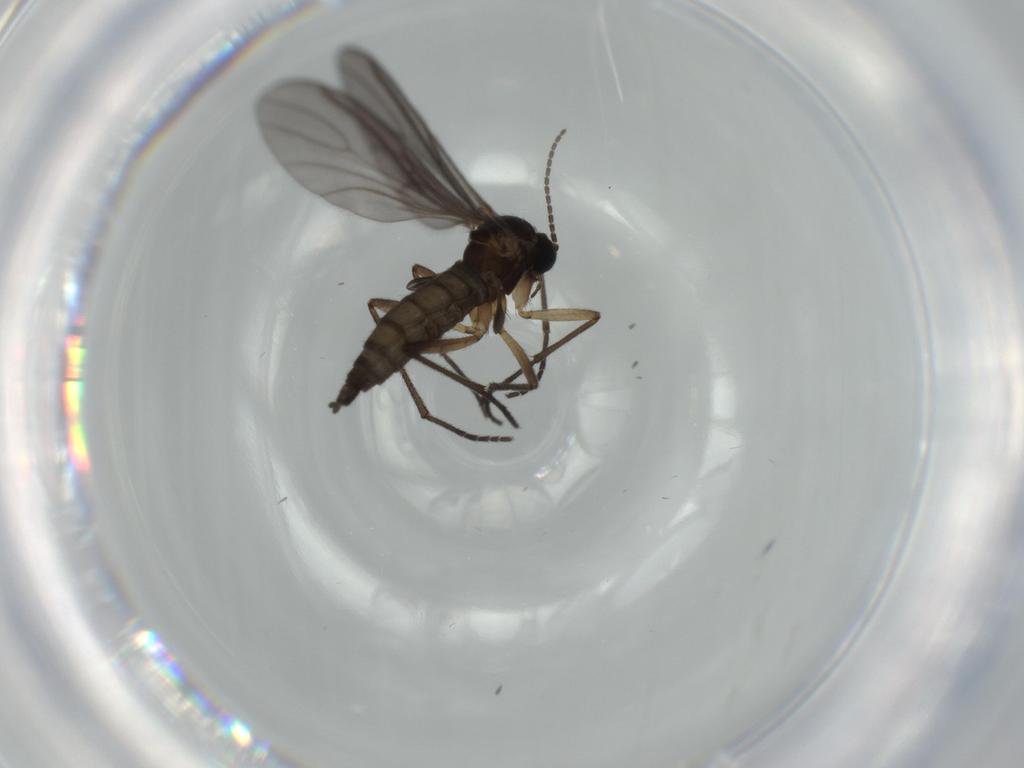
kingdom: Animalia
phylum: Arthropoda
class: Insecta
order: Diptera
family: Sciaridae
